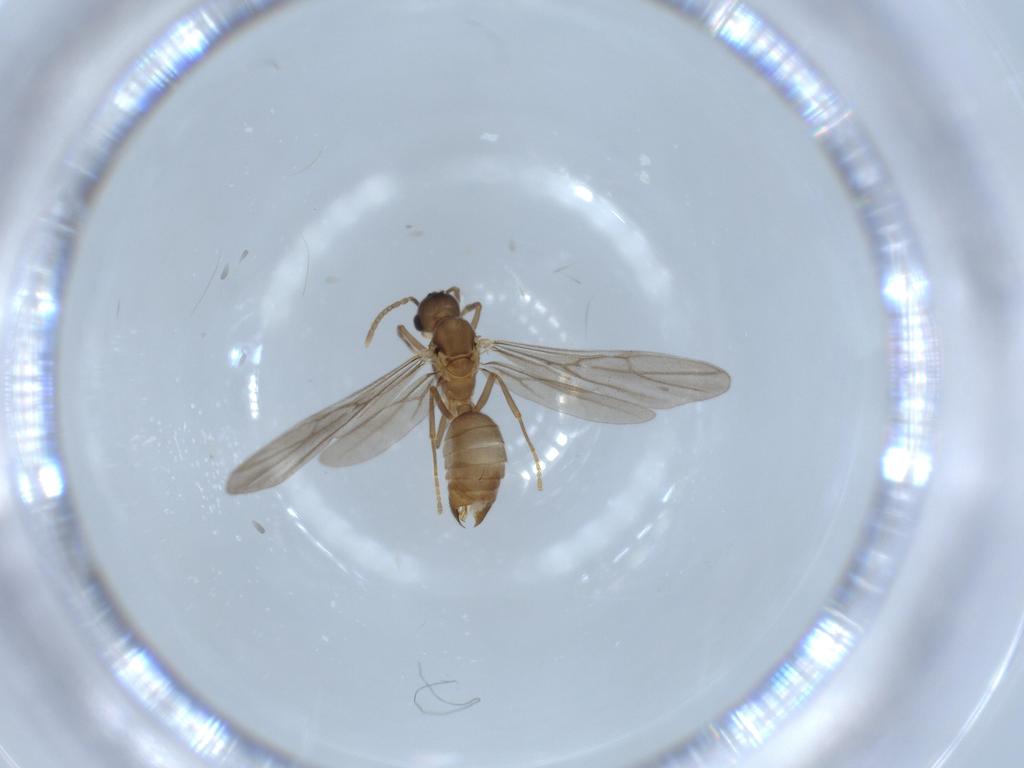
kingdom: Animalia
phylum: Arthropoda
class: Insecta
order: Hymenoptera
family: Formicidae
